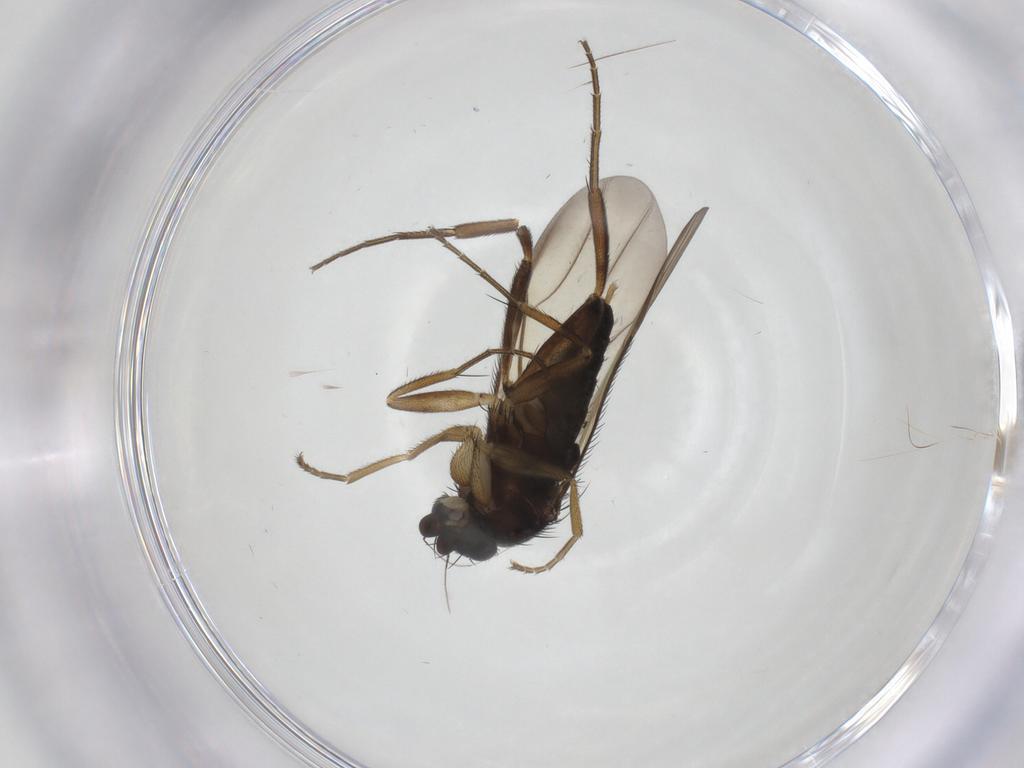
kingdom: Animalia
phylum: Arthropoda
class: Insecta
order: Diptera
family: Phoridae
